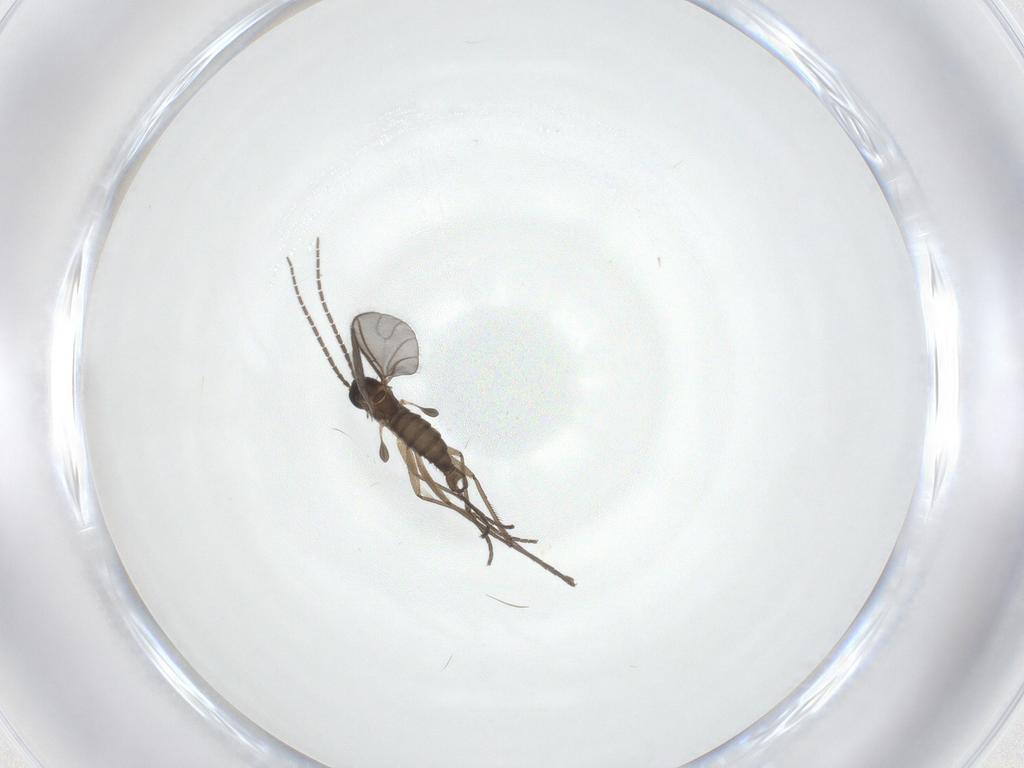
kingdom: Animalia
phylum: Arthropoda
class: Insecta
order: Diptera
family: Sciaridae
